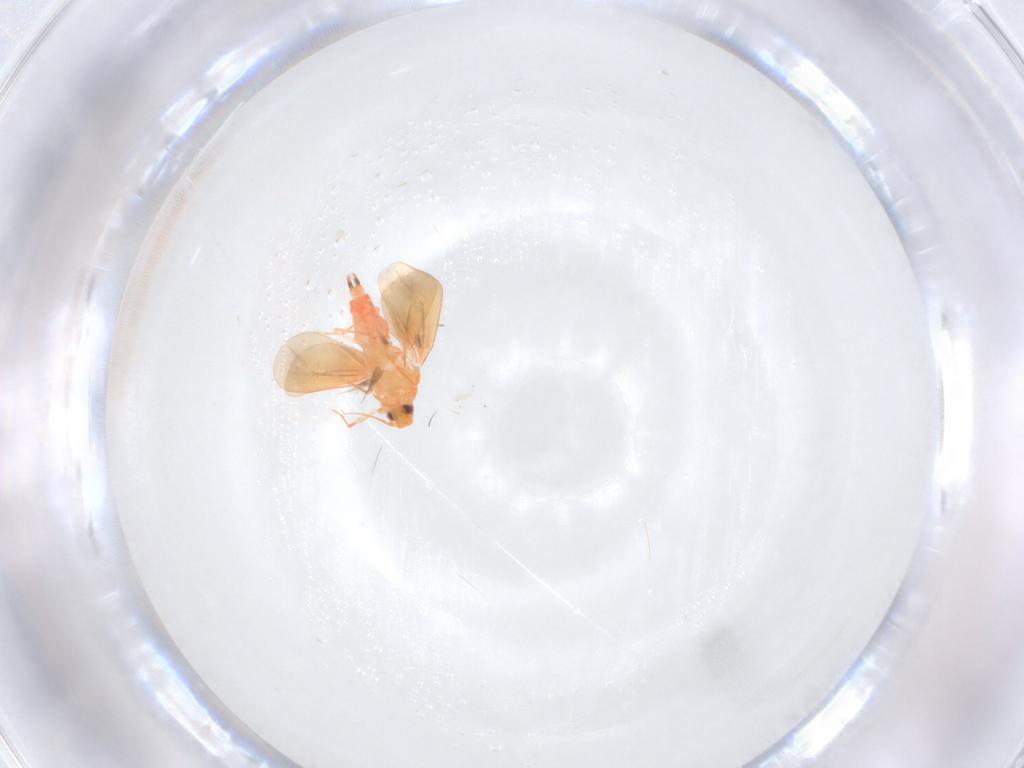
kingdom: Animalia
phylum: Arthropoda
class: Insecta
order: Hemiptera
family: Aleyrodidae
